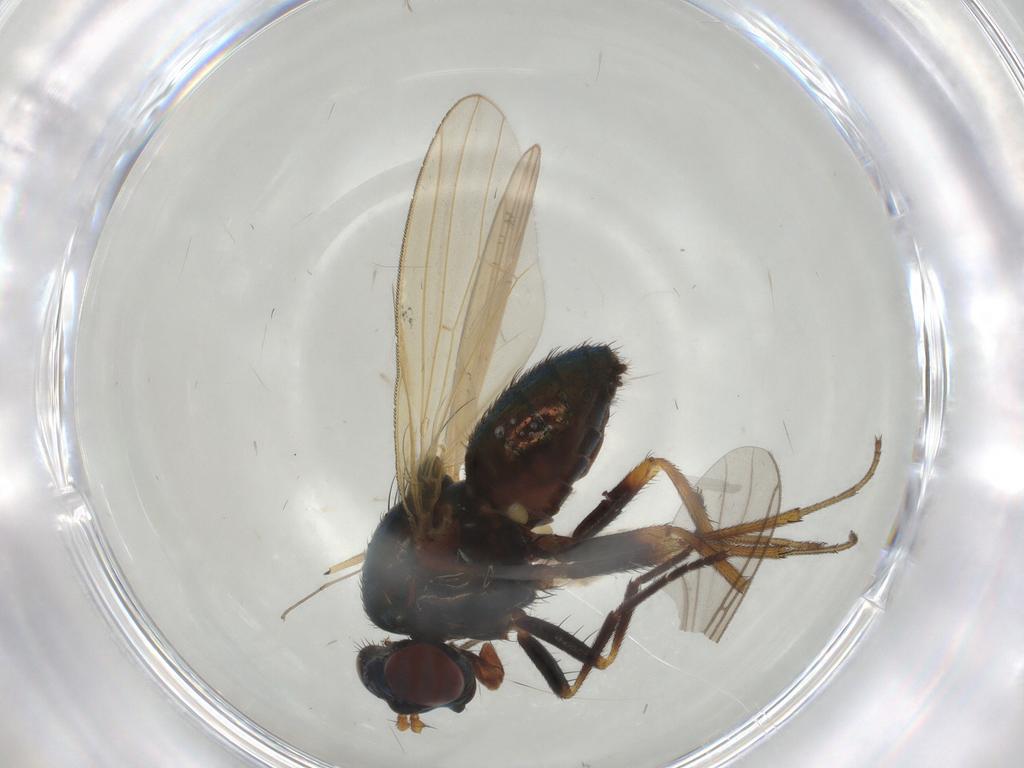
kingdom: Animalia
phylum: Arthropoda
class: Insecta
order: Diptera
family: Lauxaniidae
